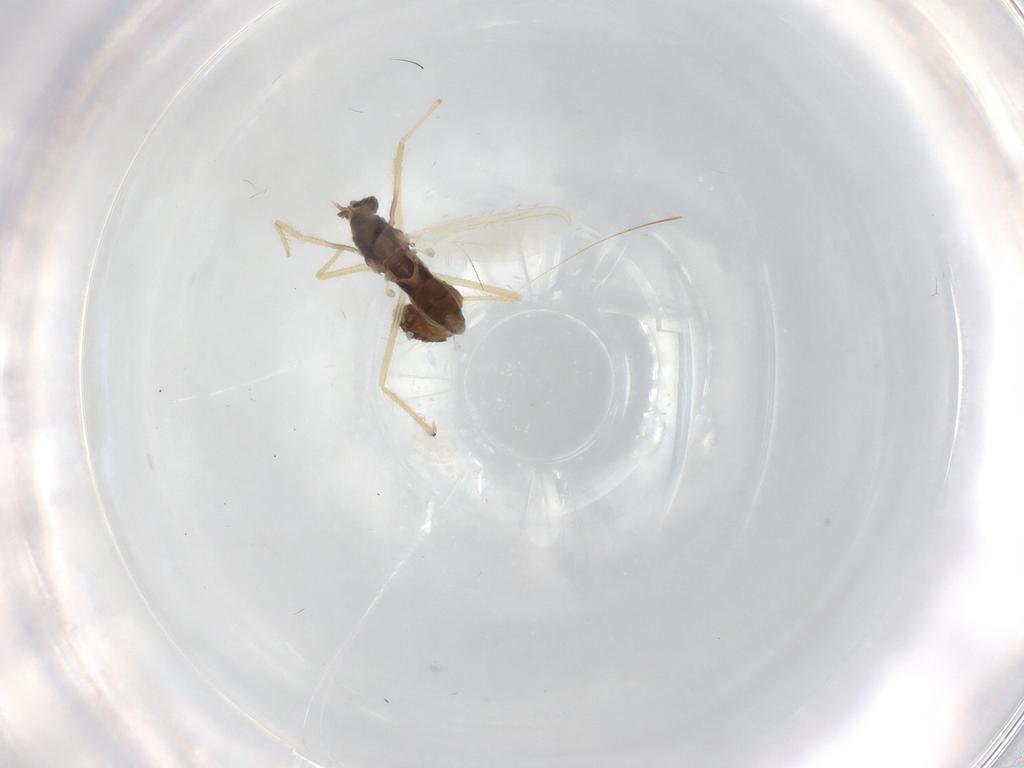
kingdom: Animalia
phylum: Arthropoda
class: Insecta
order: Diptera
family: Chironomidae
